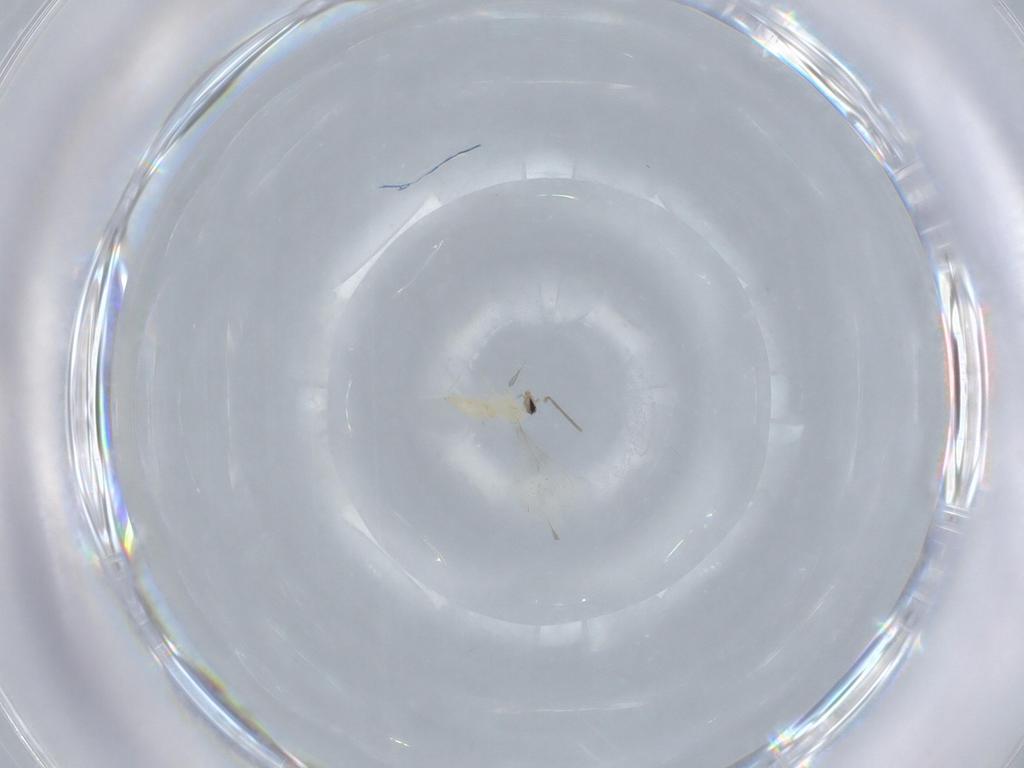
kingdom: Animalia
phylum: Arthropoda
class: Insecta
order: Diptera
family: Cecidomyiidae
